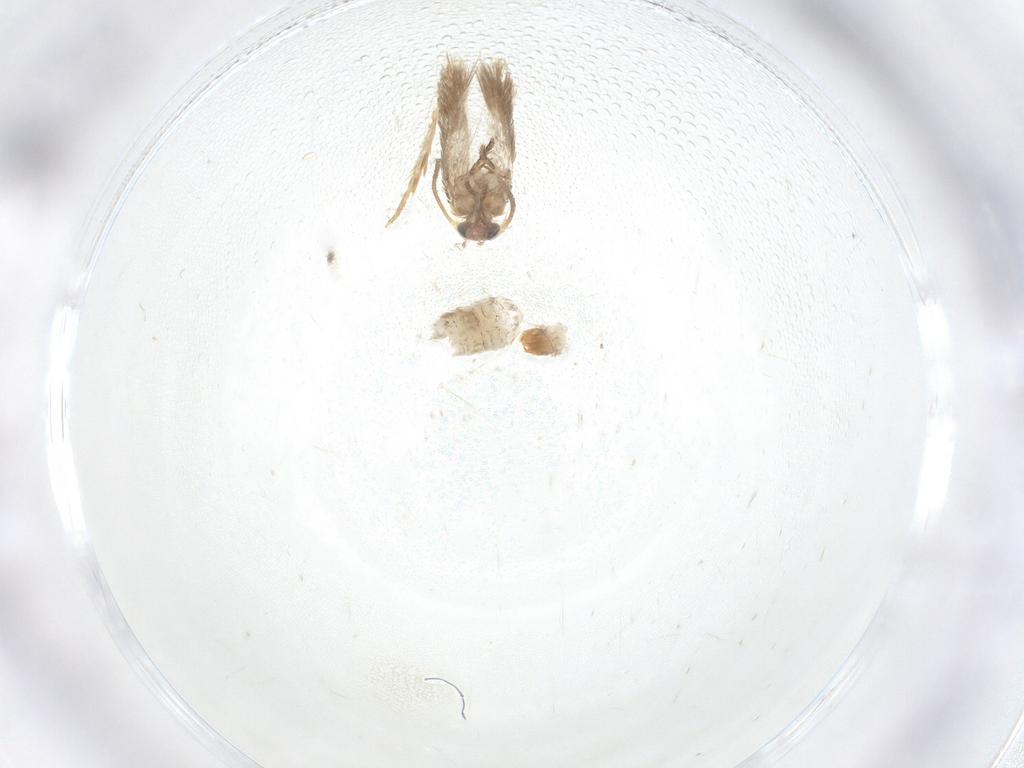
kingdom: Animalia
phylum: Arthropoda
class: Insecta
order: Lepidoptera
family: Nepticulidae
